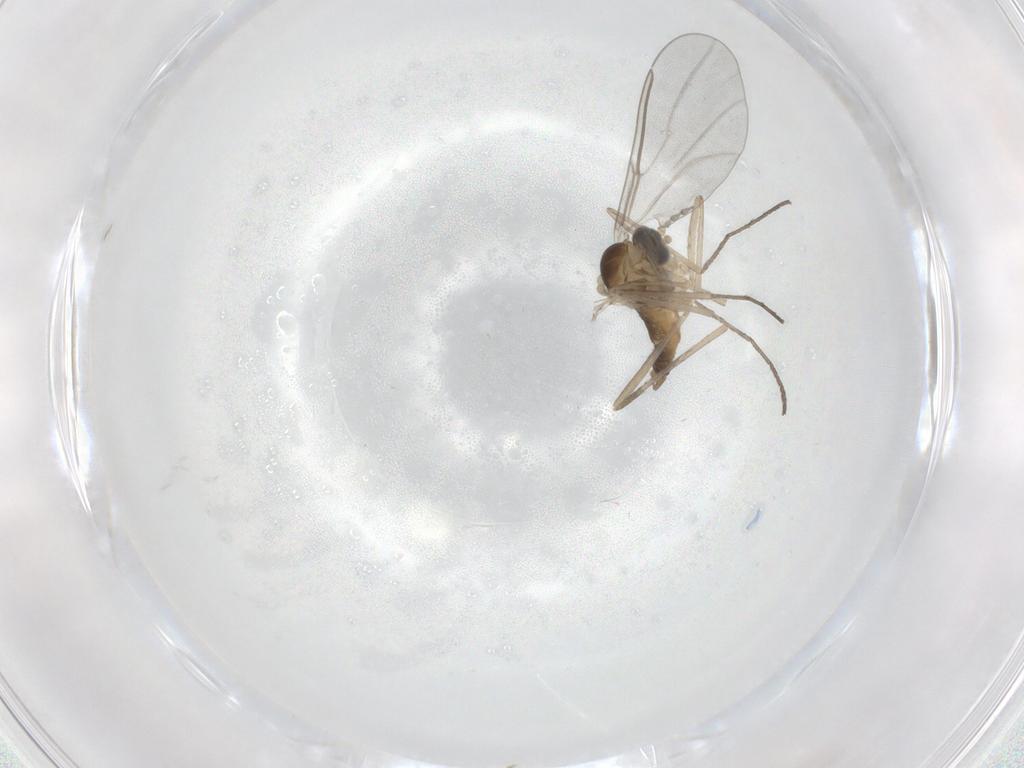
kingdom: Animalia
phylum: Arthropoda
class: Insecta
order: Diptera
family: Cecidomyiidae
